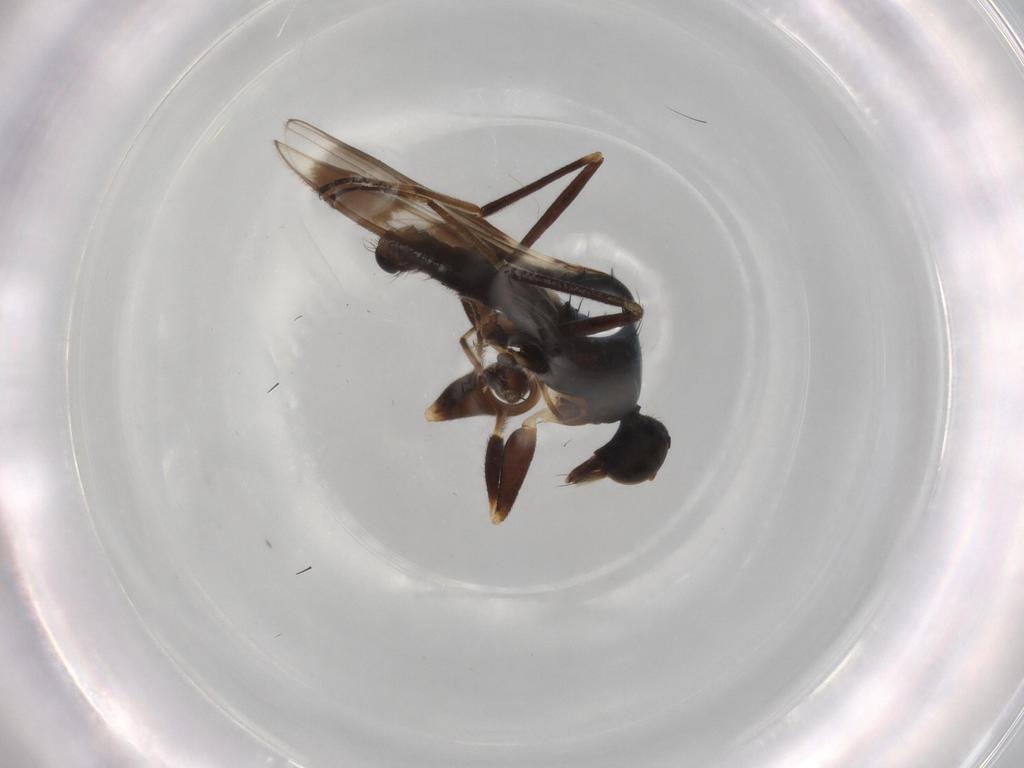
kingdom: Animalia
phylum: Arthropoda
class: Insecta
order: Diptera
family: Hybotidae
